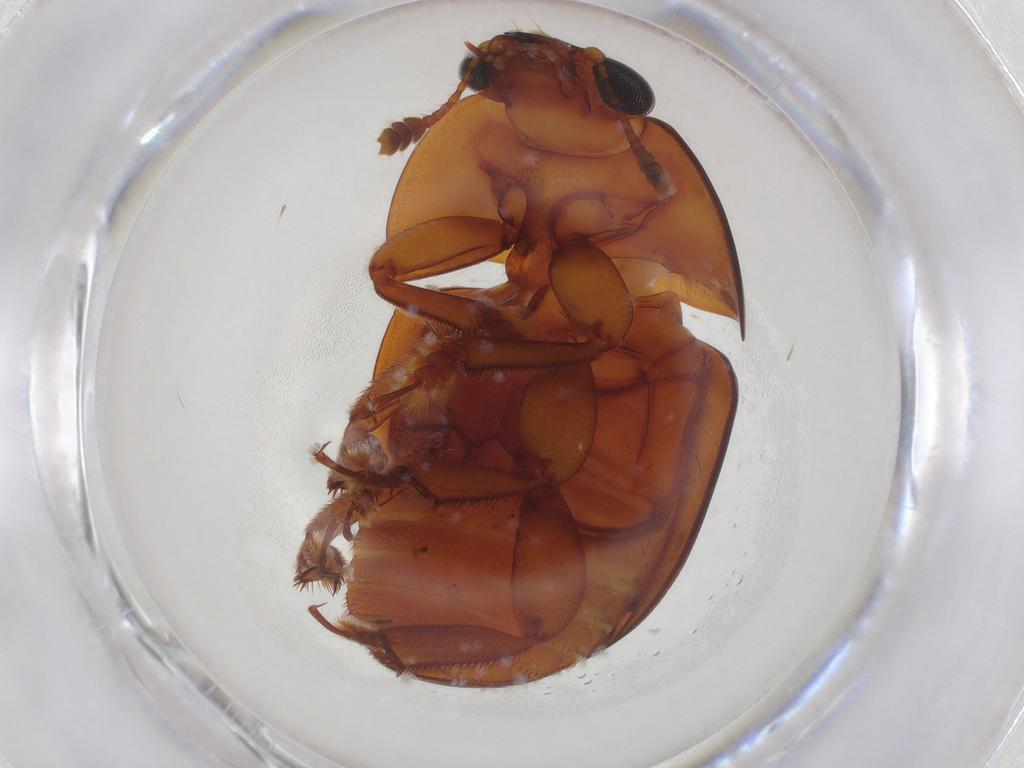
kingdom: Animalia
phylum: Arthropoda
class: Insecta
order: Coleoptera
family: Nitidulidae
